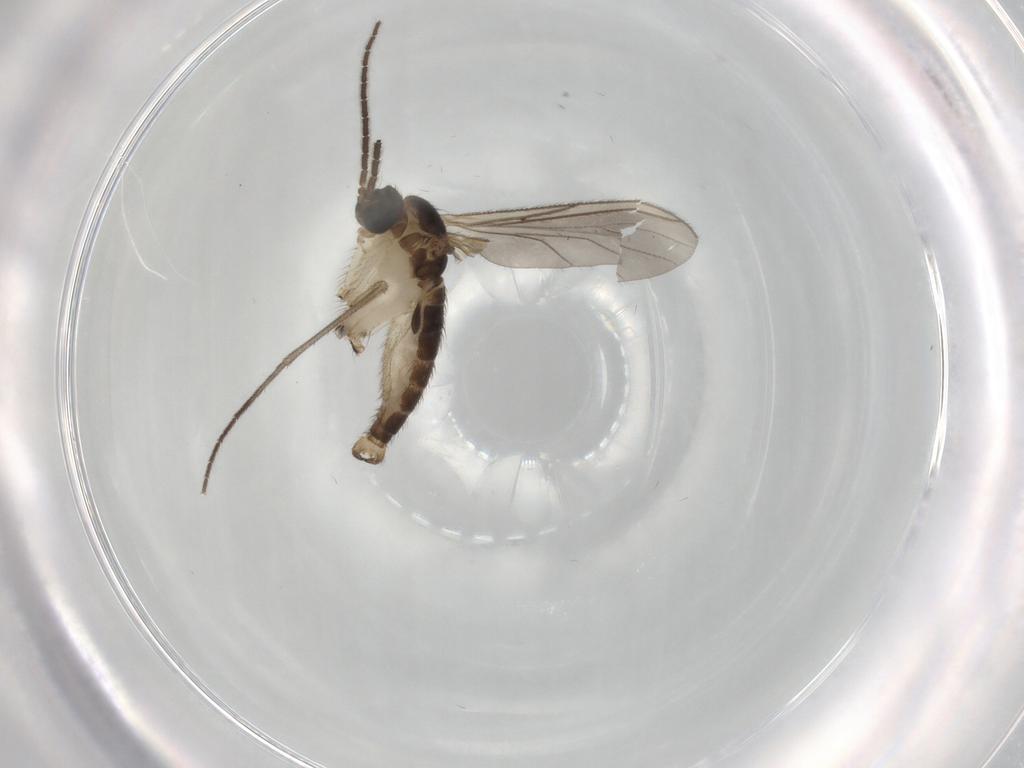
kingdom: Animalia
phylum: Arthropoda
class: Insecta
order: Diptera
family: Sciaridae
